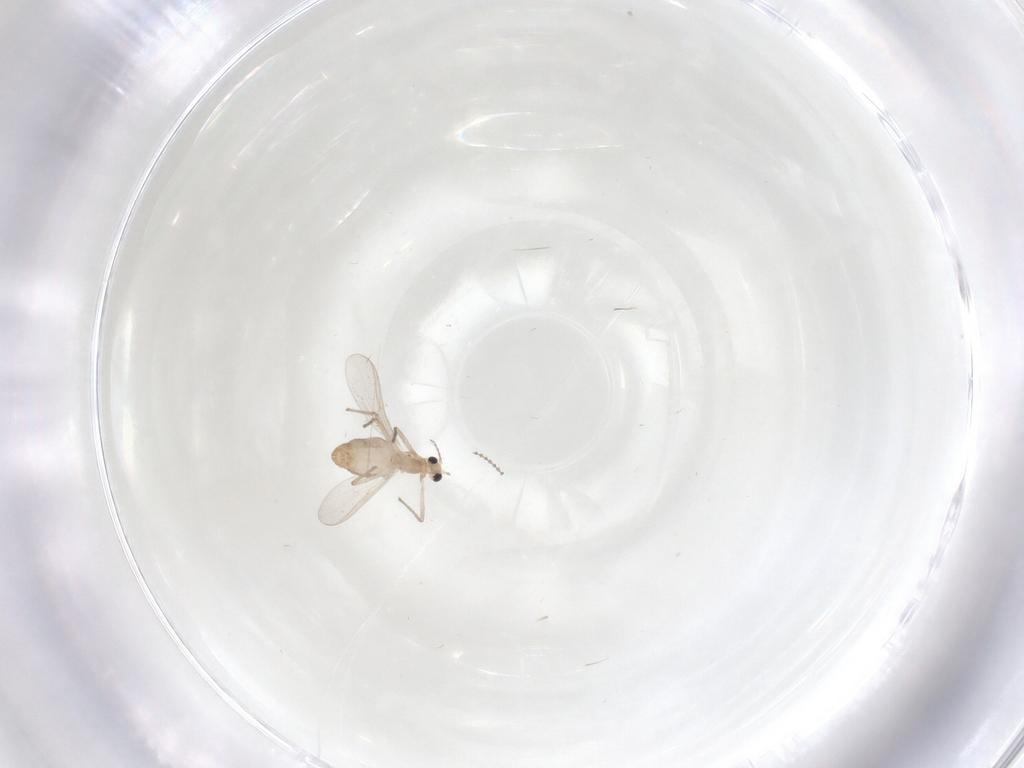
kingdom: Animalia
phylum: Arthropoda
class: Insecta
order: Diptera
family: Chironomidae
